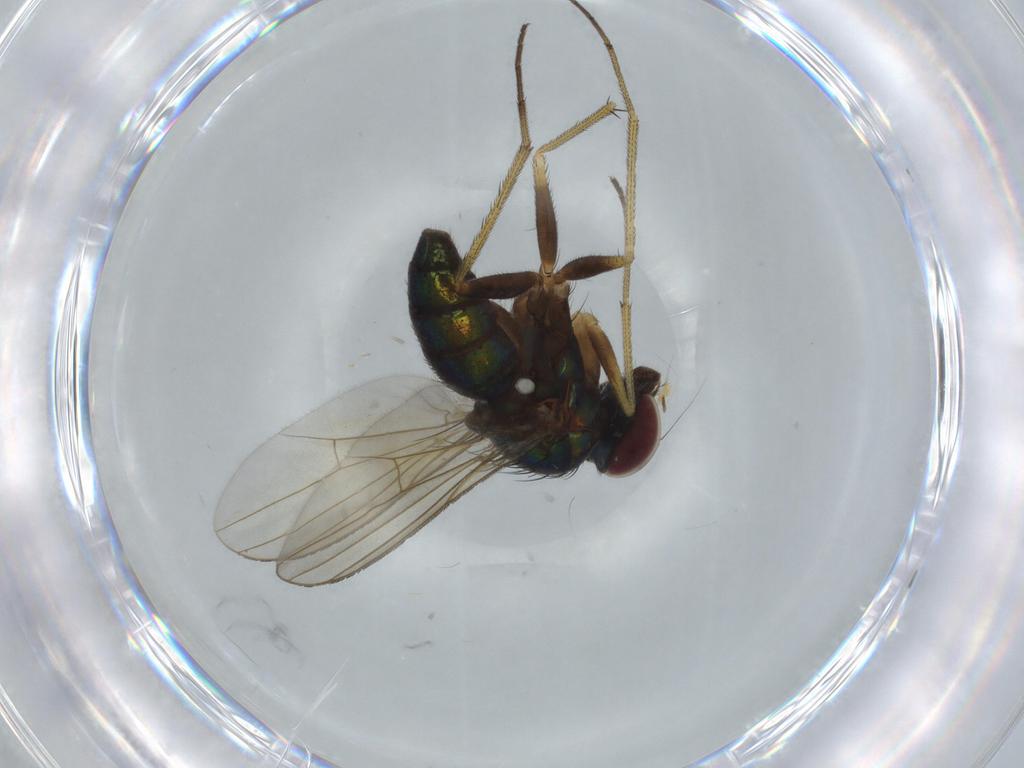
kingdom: Animalia
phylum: Arthropoda
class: Insecta
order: Diptera
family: Dolichopodidae
